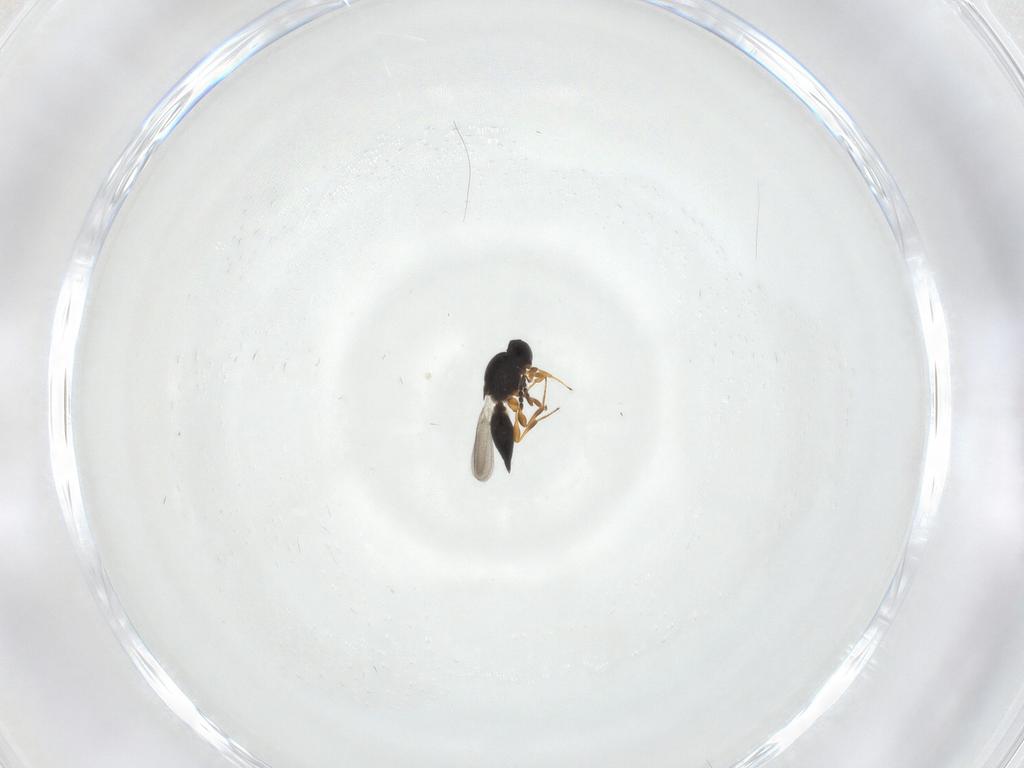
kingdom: Animalia
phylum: Arthropoda
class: Insecta
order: Hymenoptera
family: Platygastridae
